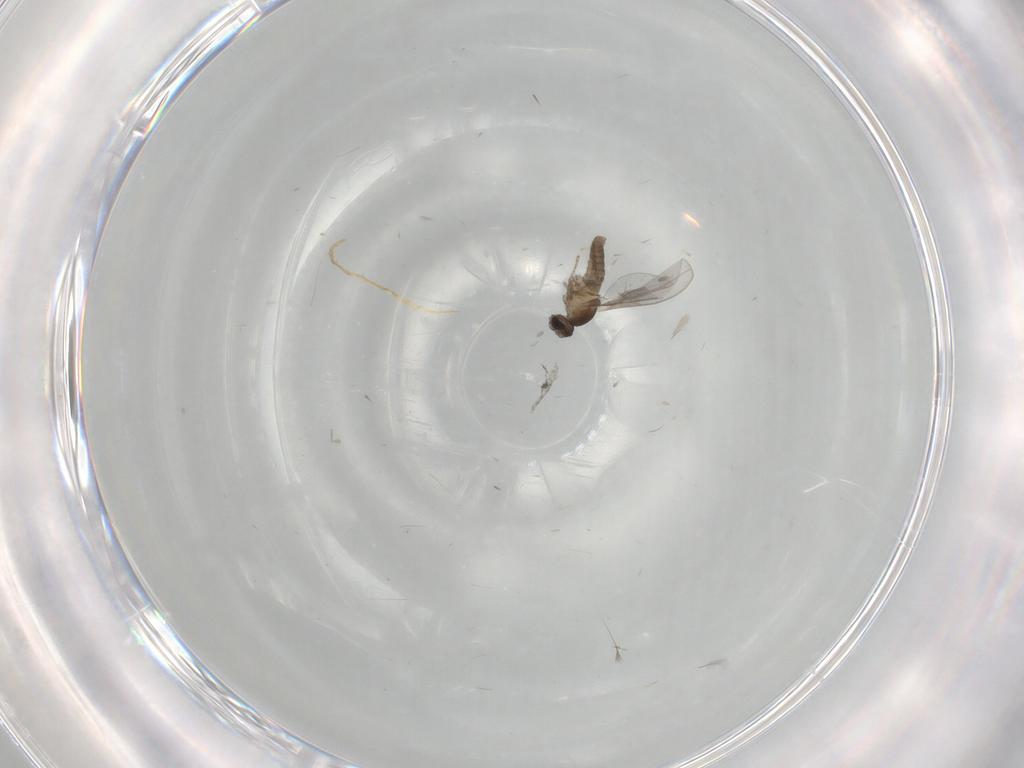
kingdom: Animalia
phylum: Arthropoda
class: Insecta
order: Diptera
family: Cecidomyiidae
